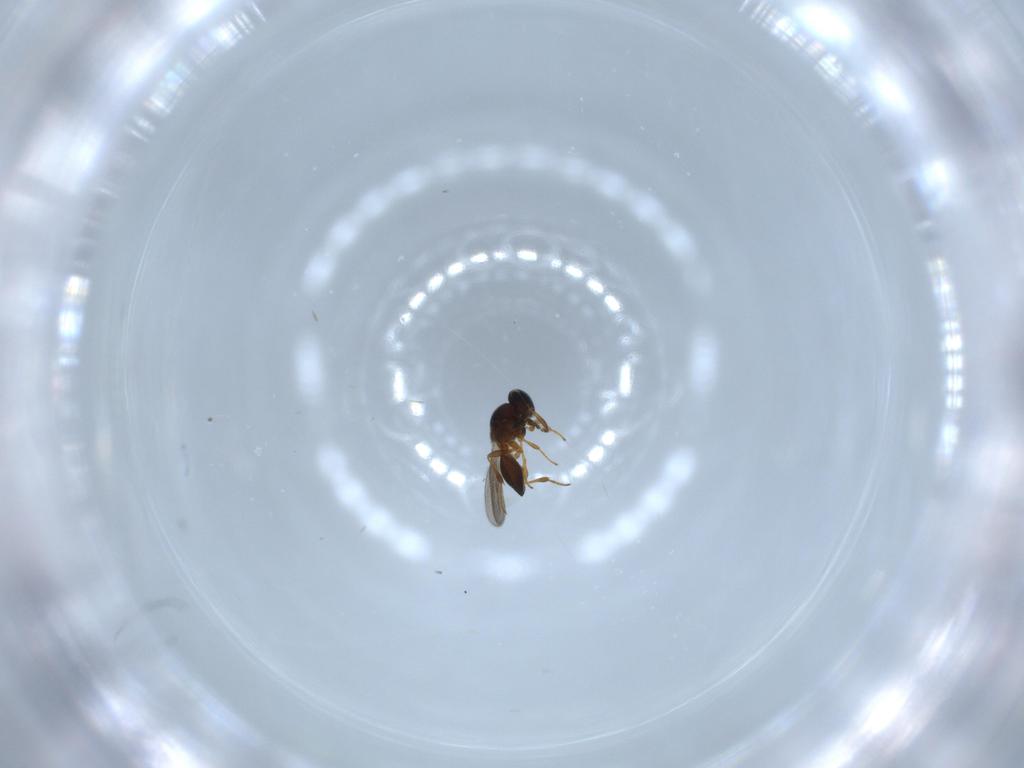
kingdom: Animalia
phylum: Arthropoda
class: Insecta
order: Hymenoptera
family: Platygastridae
